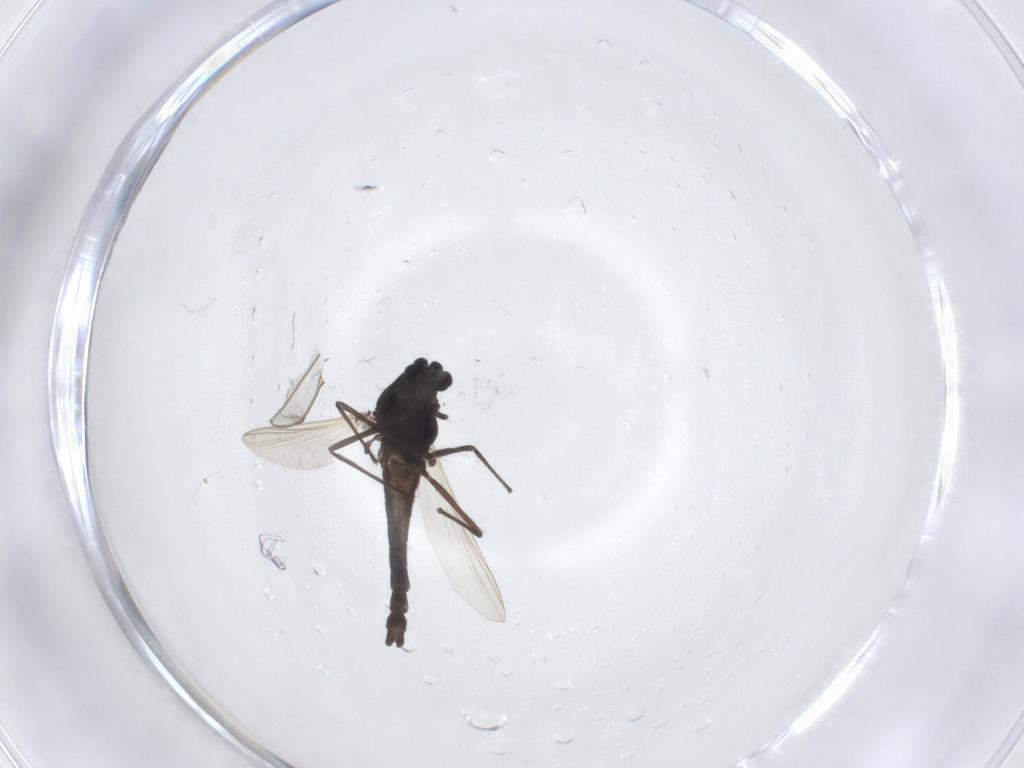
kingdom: Animalia
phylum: Arthropoda
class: Insecta
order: Diptera
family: Cecidomyiidae
